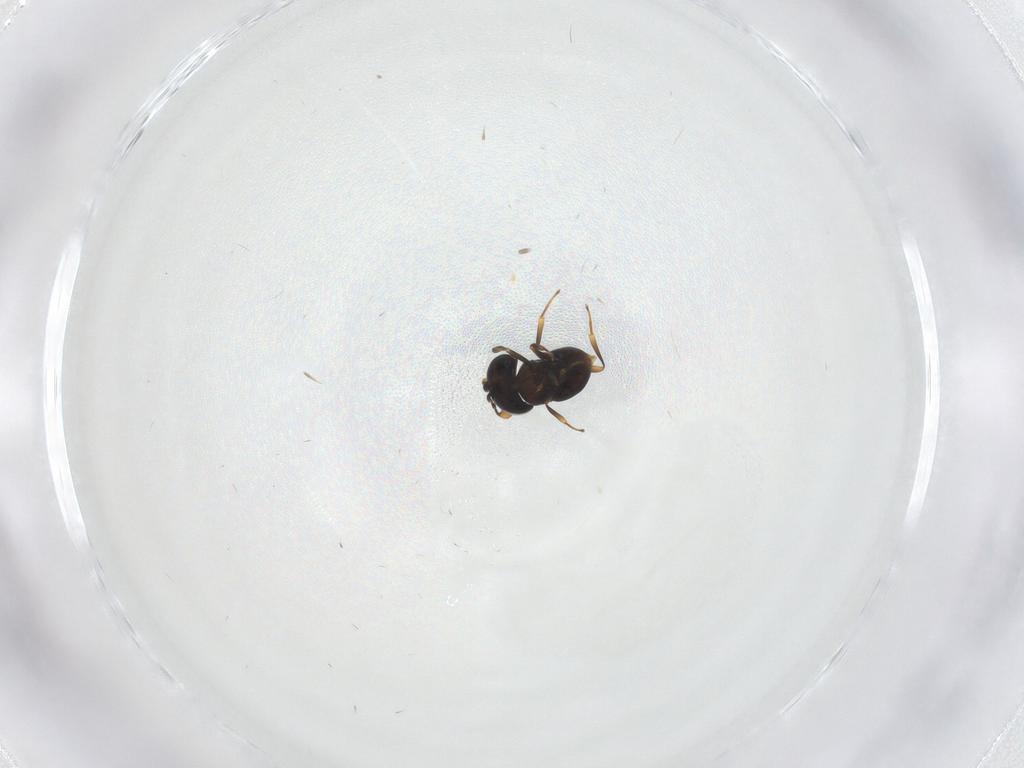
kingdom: Animalia
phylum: Arthropoda
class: Insecta
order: Hymenoptera
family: Scelionidae
